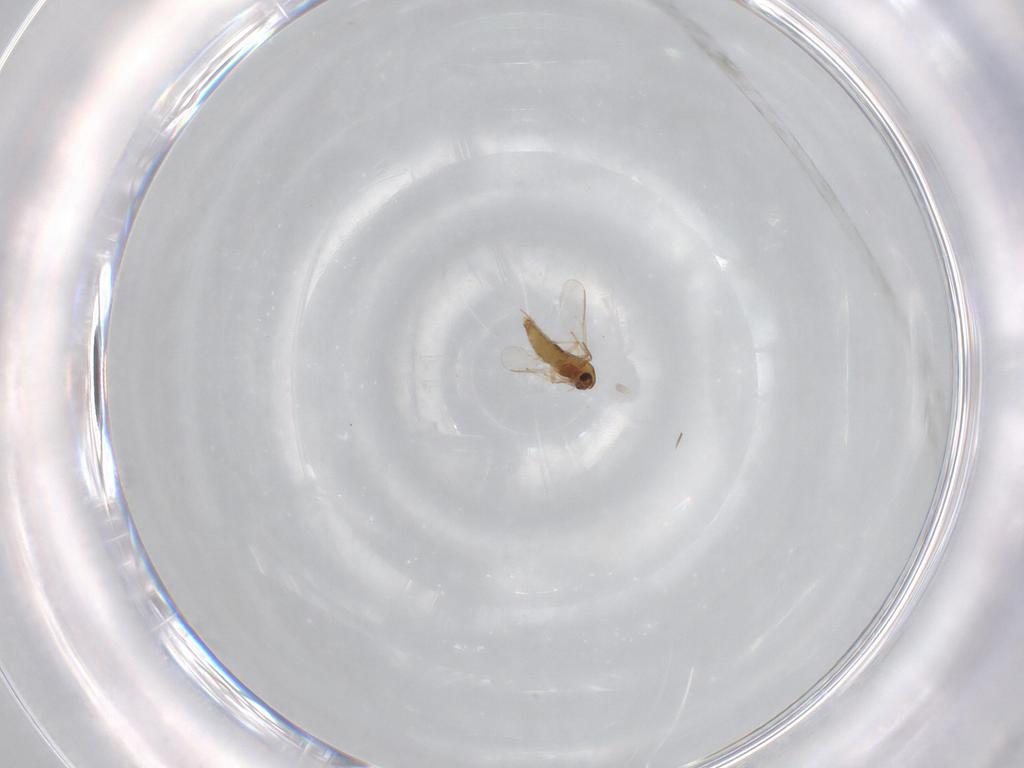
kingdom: Animalia
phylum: Arthropoda
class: Insecta
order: Diptera
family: Chironomidae
